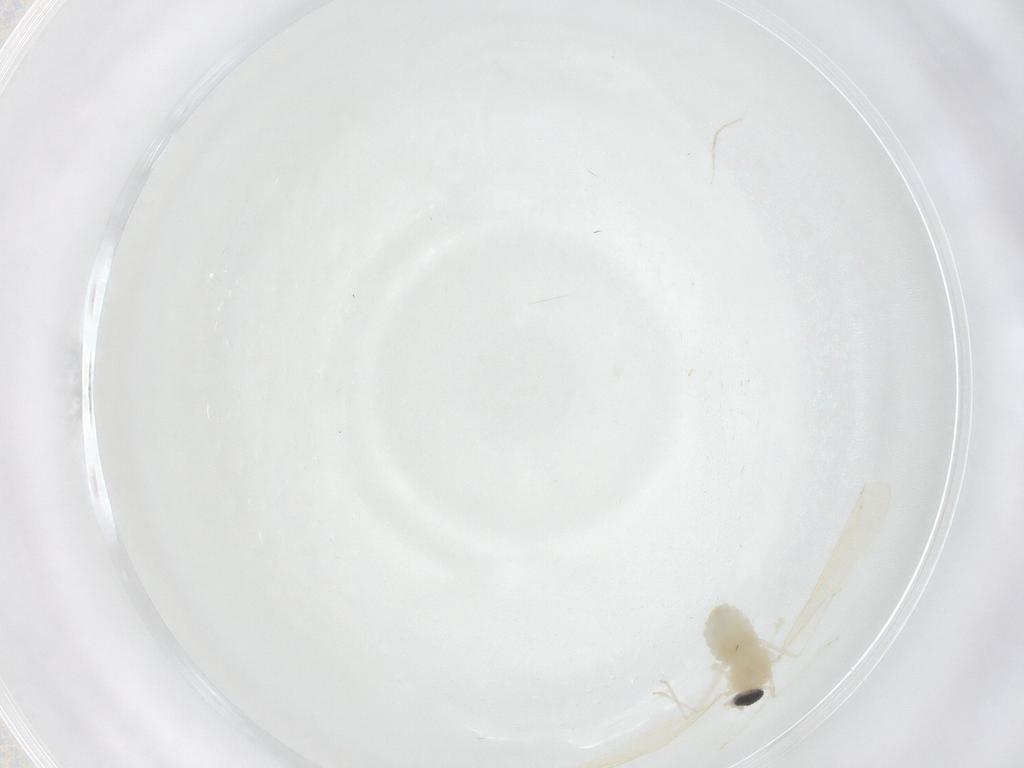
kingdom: Animalia
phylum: Arthropoda
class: Insecta
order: Diptera
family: Cecidomyiidae
